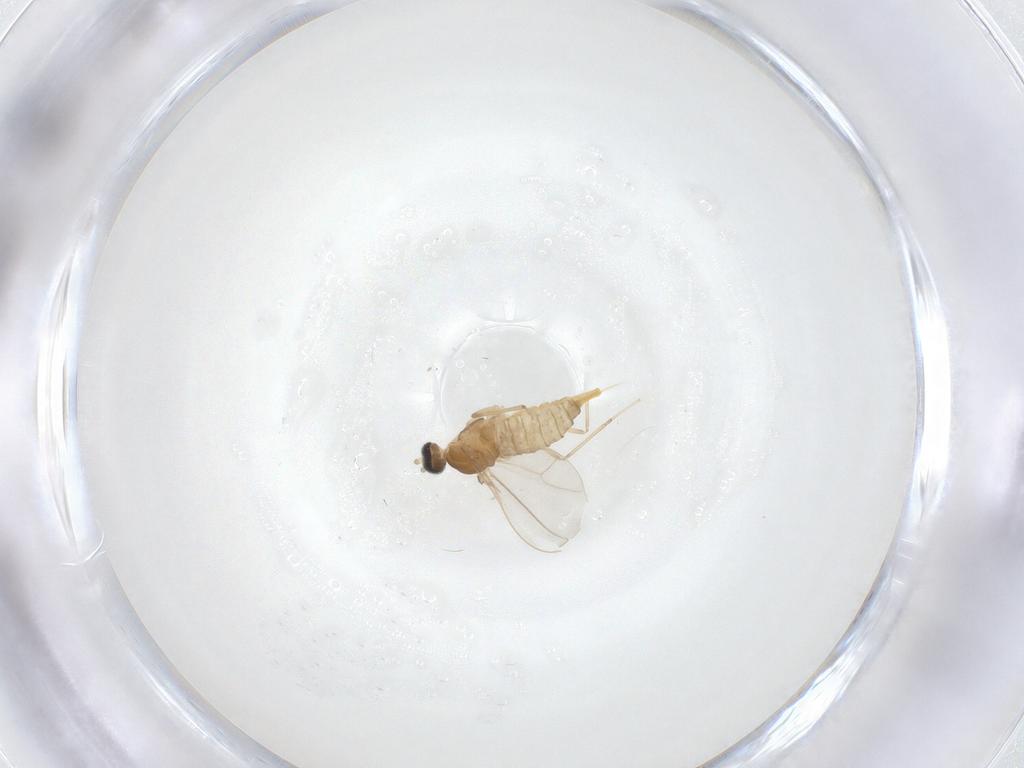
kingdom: Animalia
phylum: Arthropoda
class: Insecta
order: Diptera
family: Cecidomyiidae
